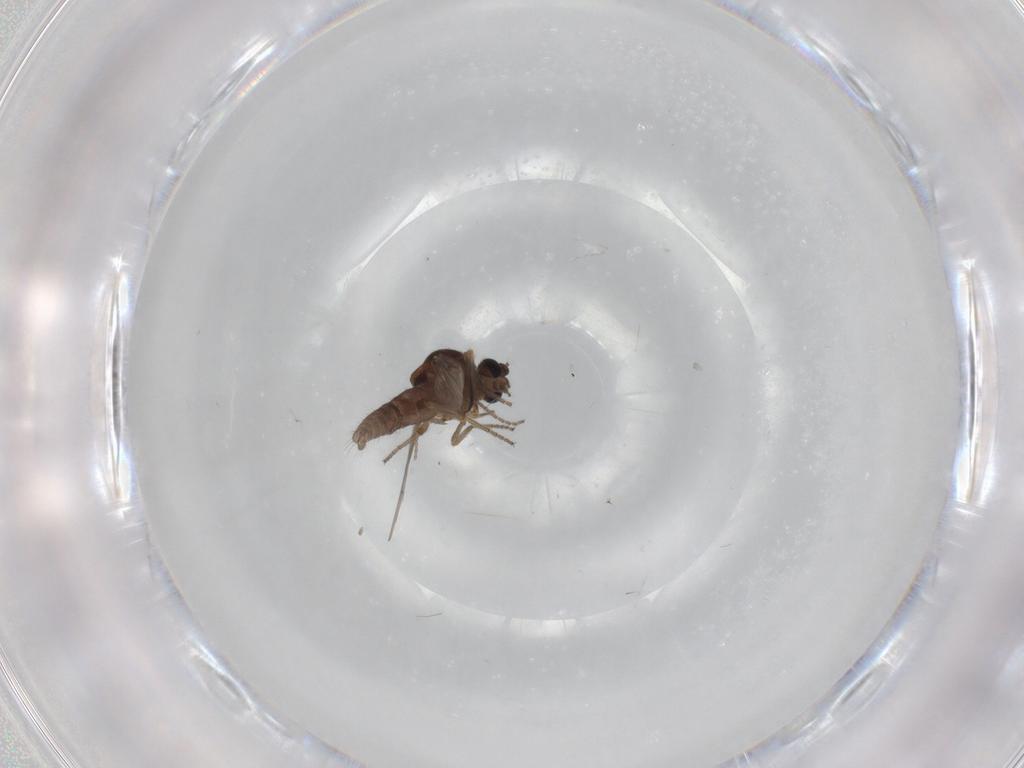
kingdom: Animalia
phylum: Arthropoda
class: Insecta
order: Diptera
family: Ceratopogonidae
